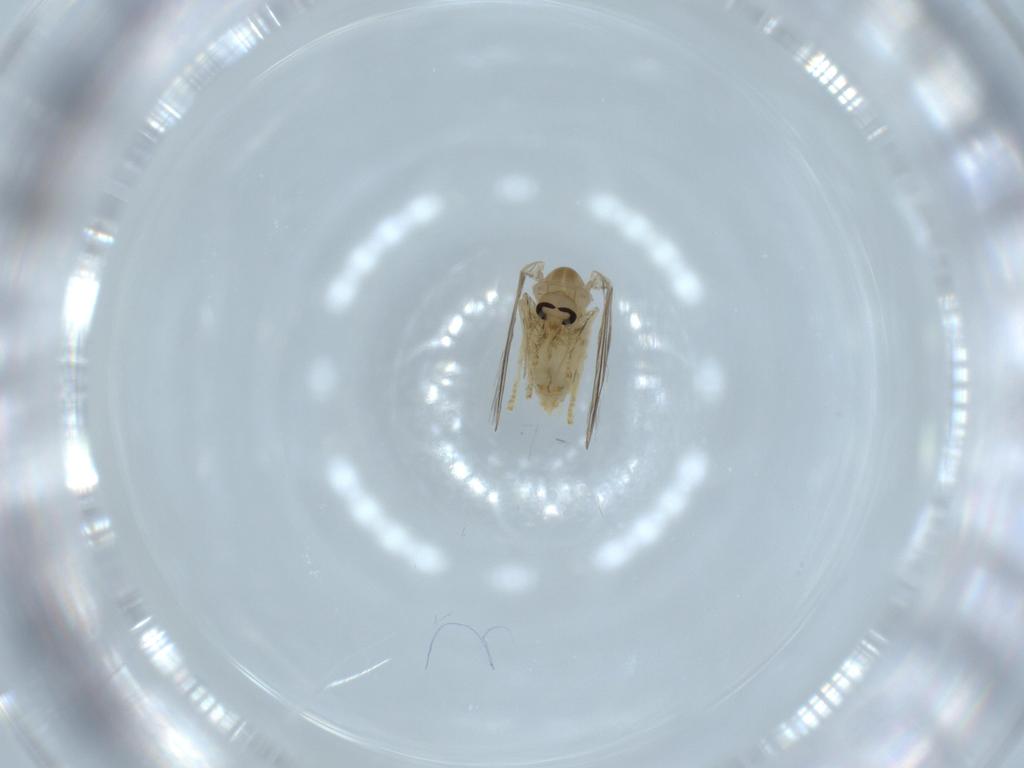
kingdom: Animalia
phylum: Arthropoda
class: Insecta
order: Diptera
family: Psychodidae
